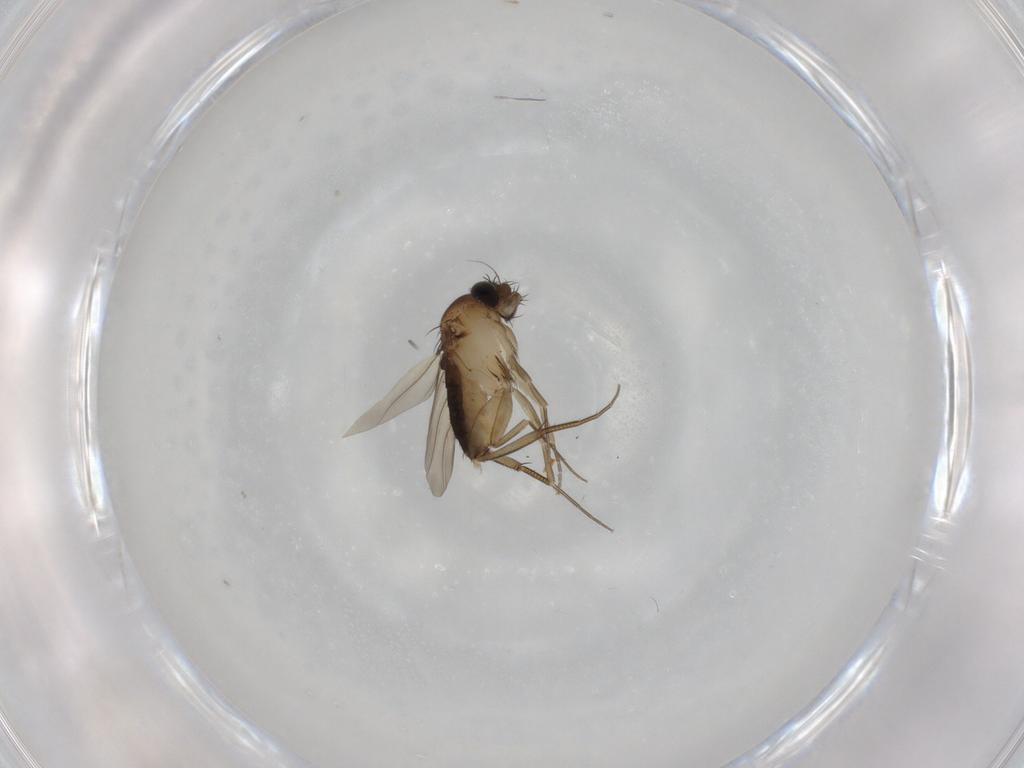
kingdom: Animalia
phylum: Arthropoda
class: Insecta
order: Diptera
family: Phoridae
